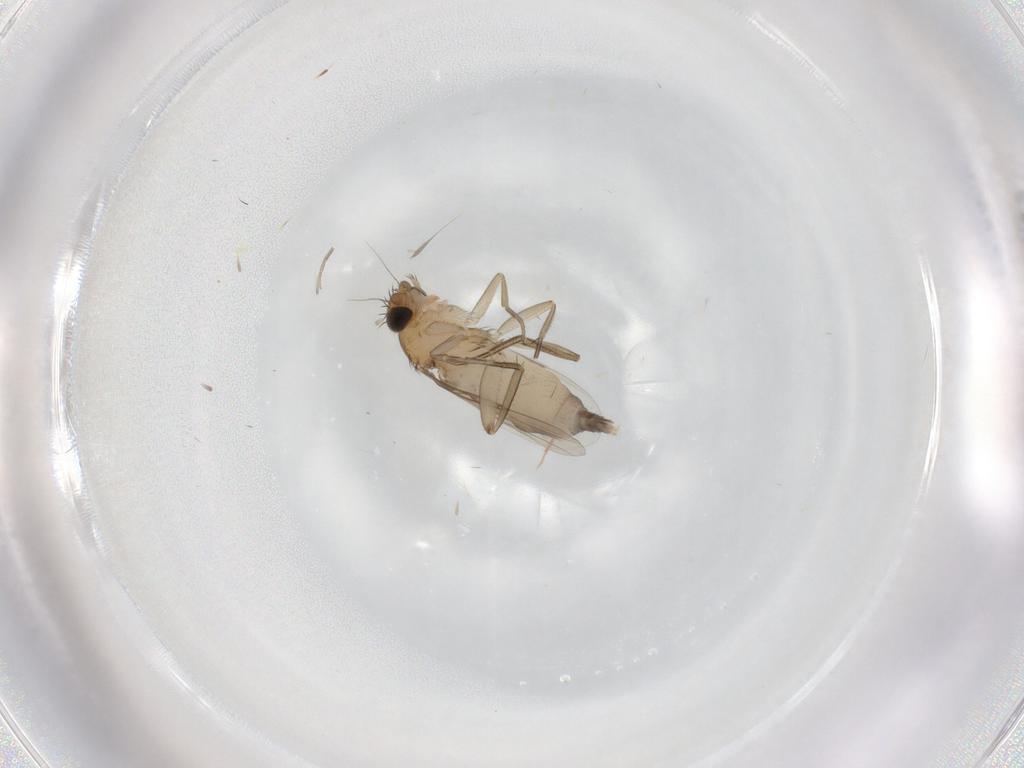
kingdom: Animalia
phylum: Arthropoda
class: Insecta
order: Diptera
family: Phoridae
